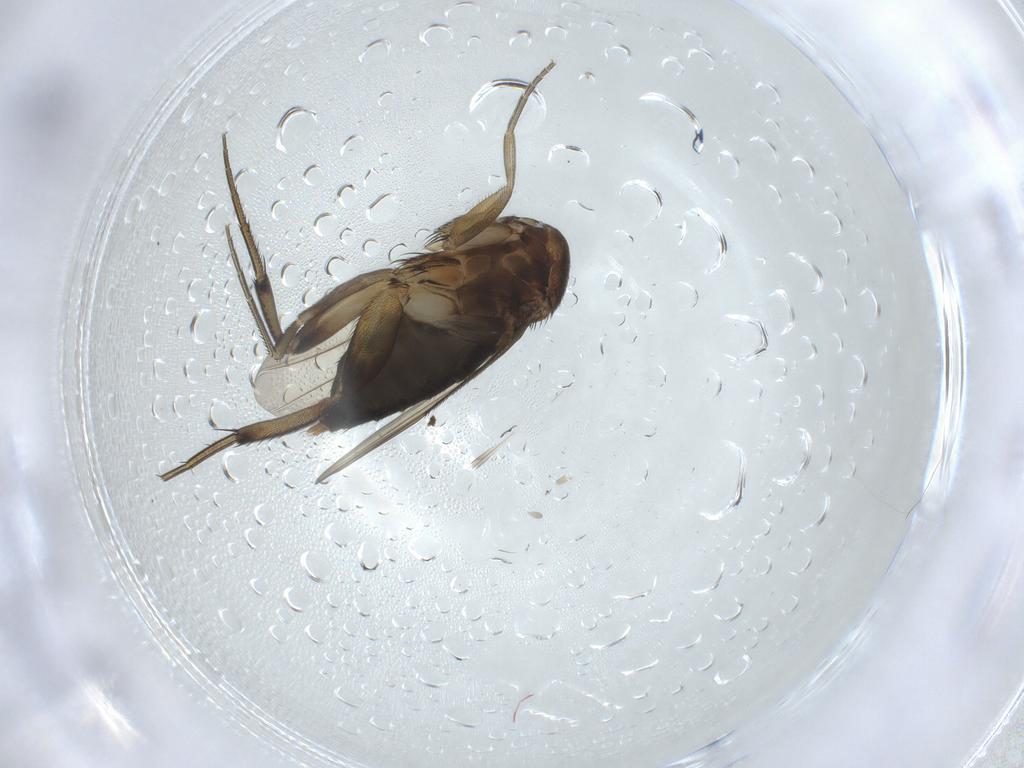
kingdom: Animalia
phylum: Arthropoda
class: Insecta
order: Diptera
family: Phoridae
